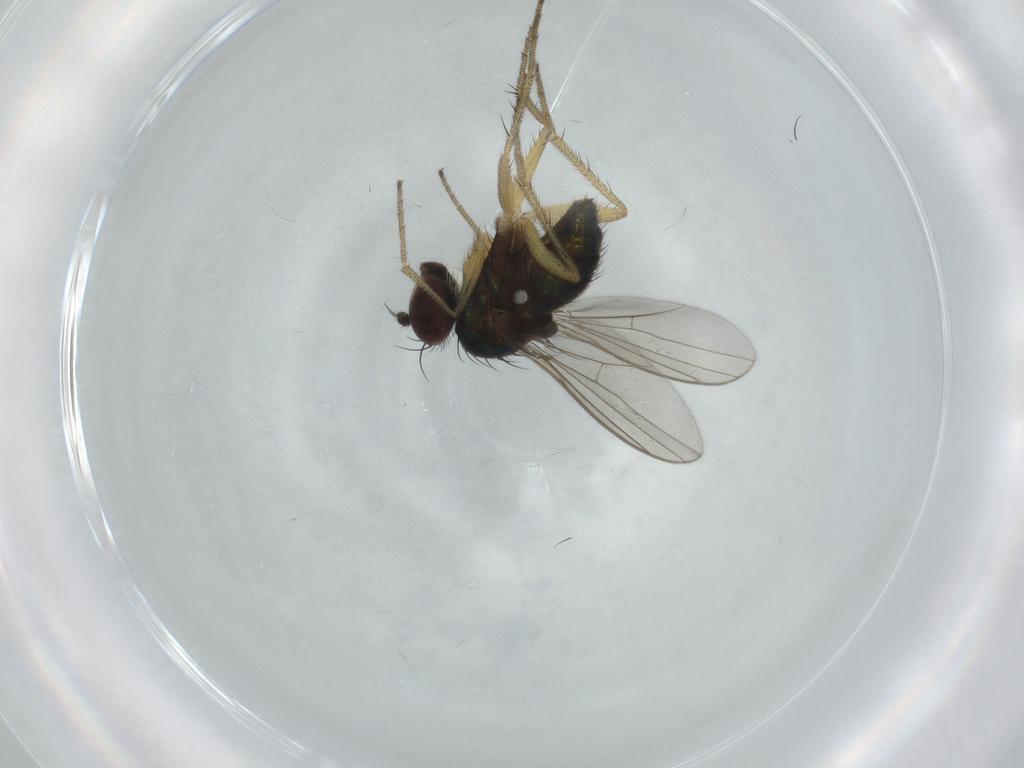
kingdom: Animalia
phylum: Arthropoda
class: Insecta
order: Diptera
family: Dolichopodidae
